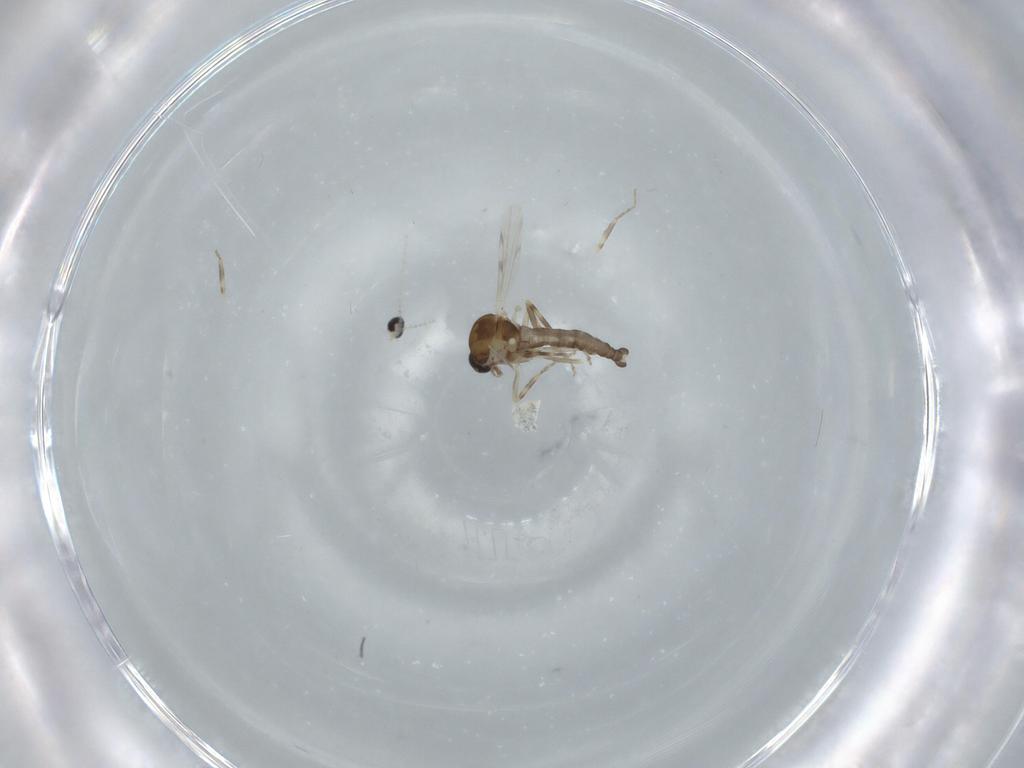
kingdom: Animalia
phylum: Arthropoda
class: Insecta
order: Diptera
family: Ceratopogonidae
